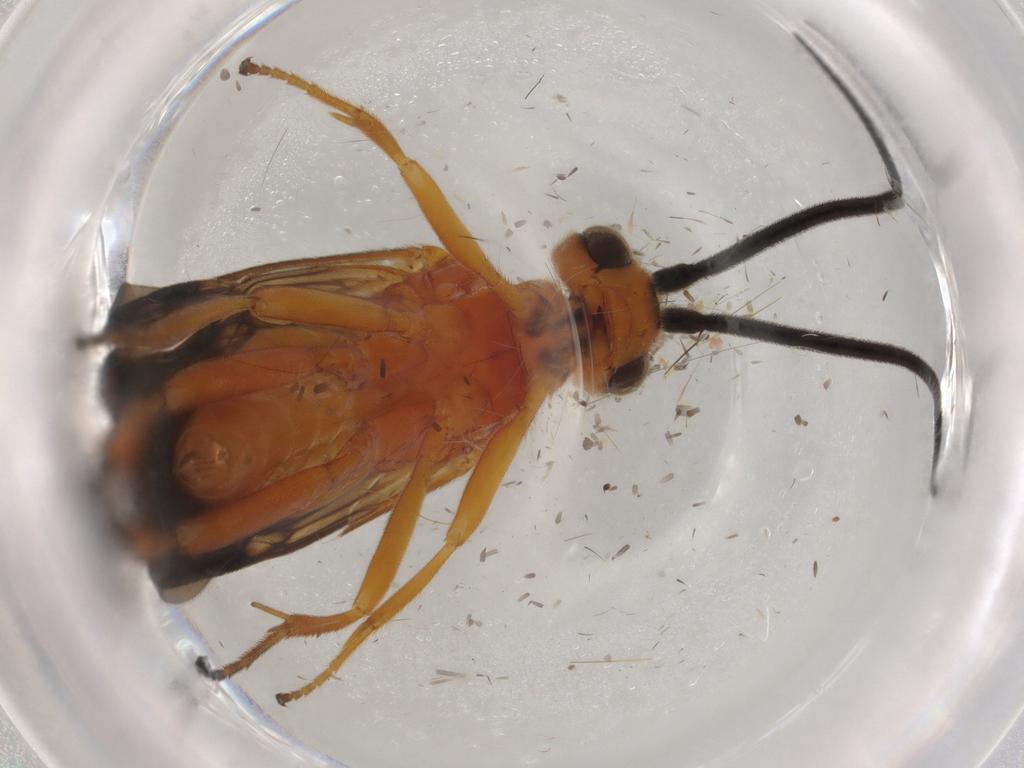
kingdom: Animalia
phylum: Arthropoda
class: Insecta
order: Hymenoptera
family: Braconidae
